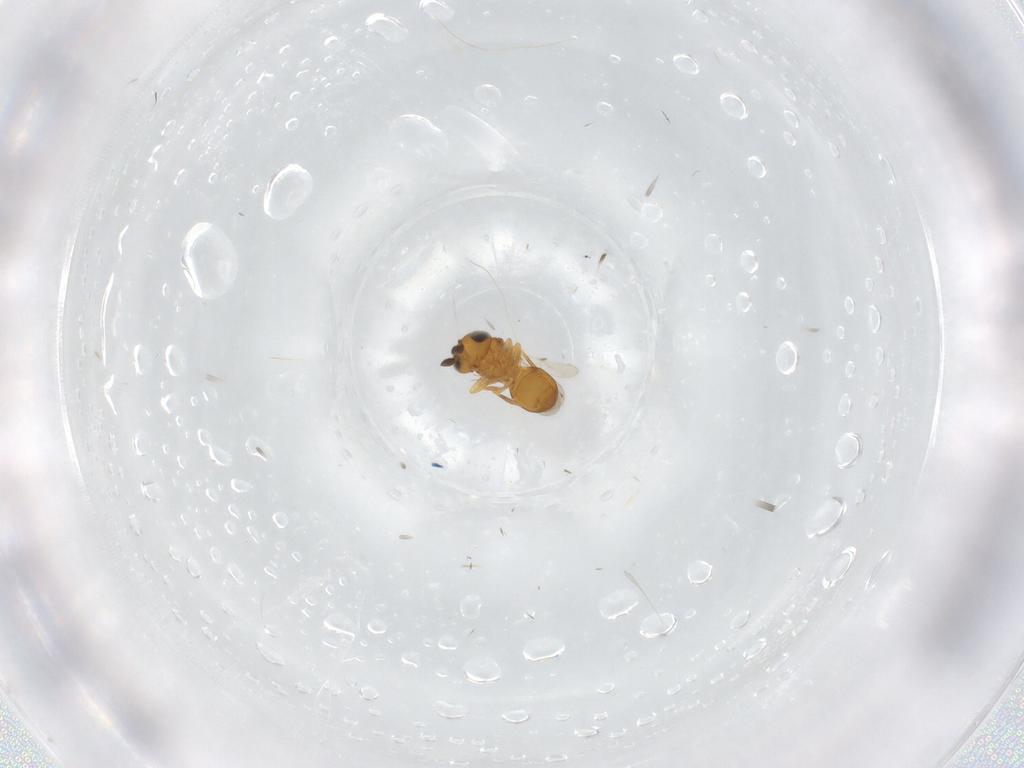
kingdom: Animalia
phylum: Arthropoda
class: Insecta
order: Hymenoptera
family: Scelionidae
